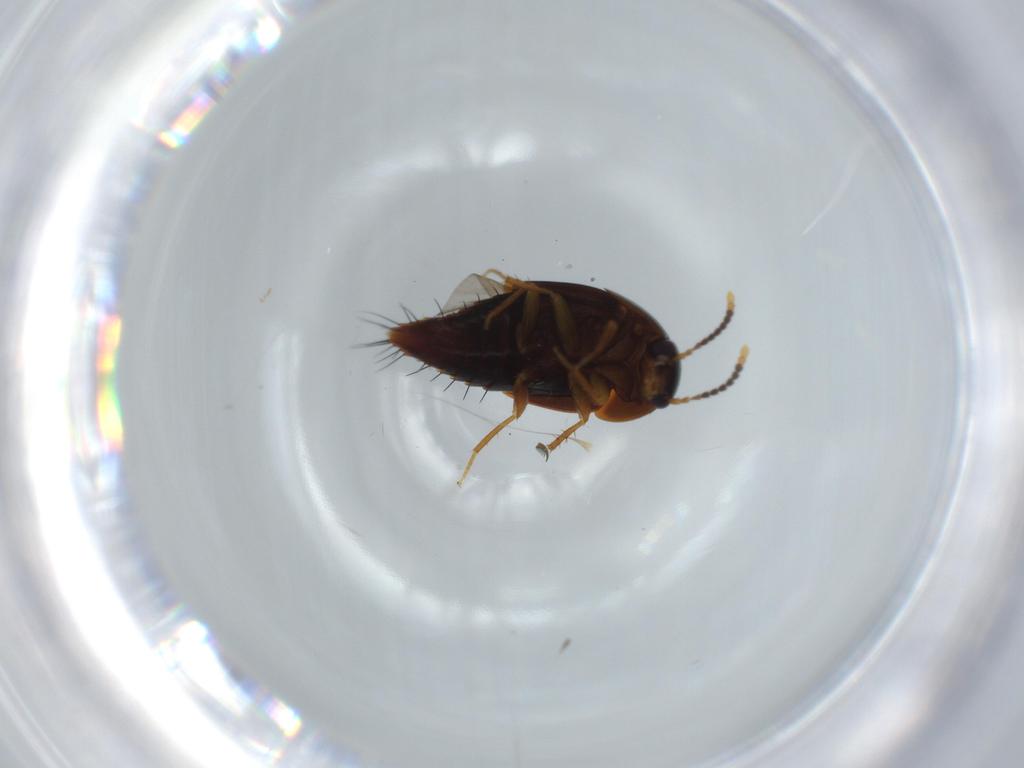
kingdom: Animalia
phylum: Arthropoda
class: Insecta
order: Coleoptera
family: Staphylinidae
